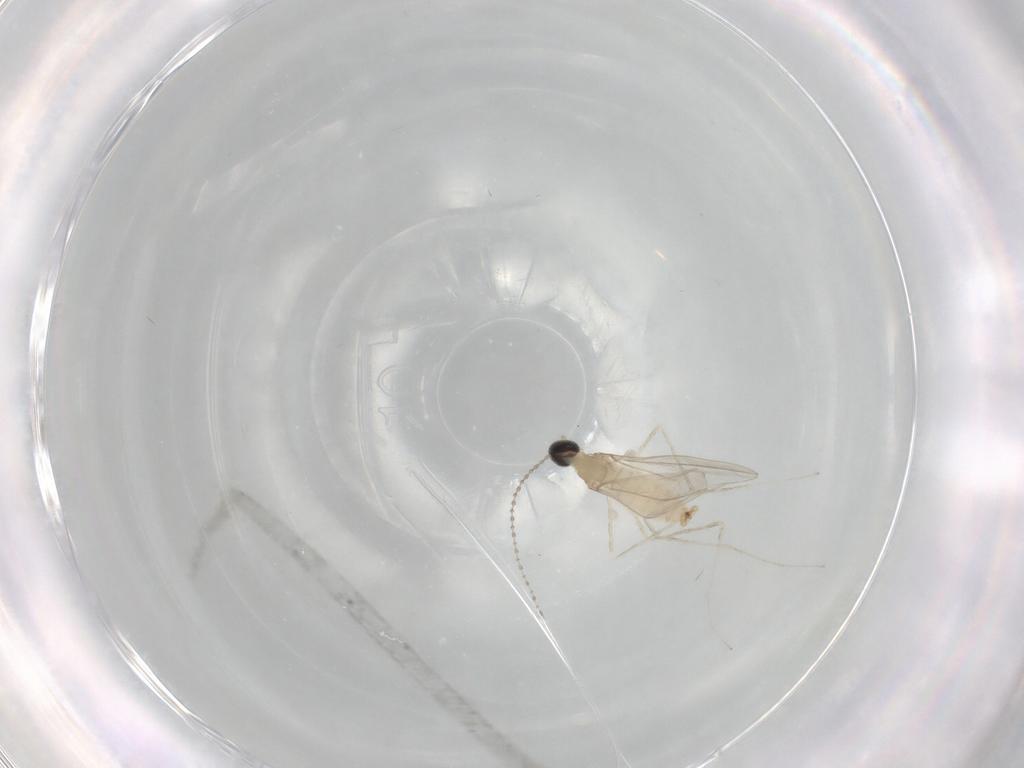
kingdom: Animalia
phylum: Arthropoda
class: Insecta
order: Diptera
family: Cecidomyiidae
